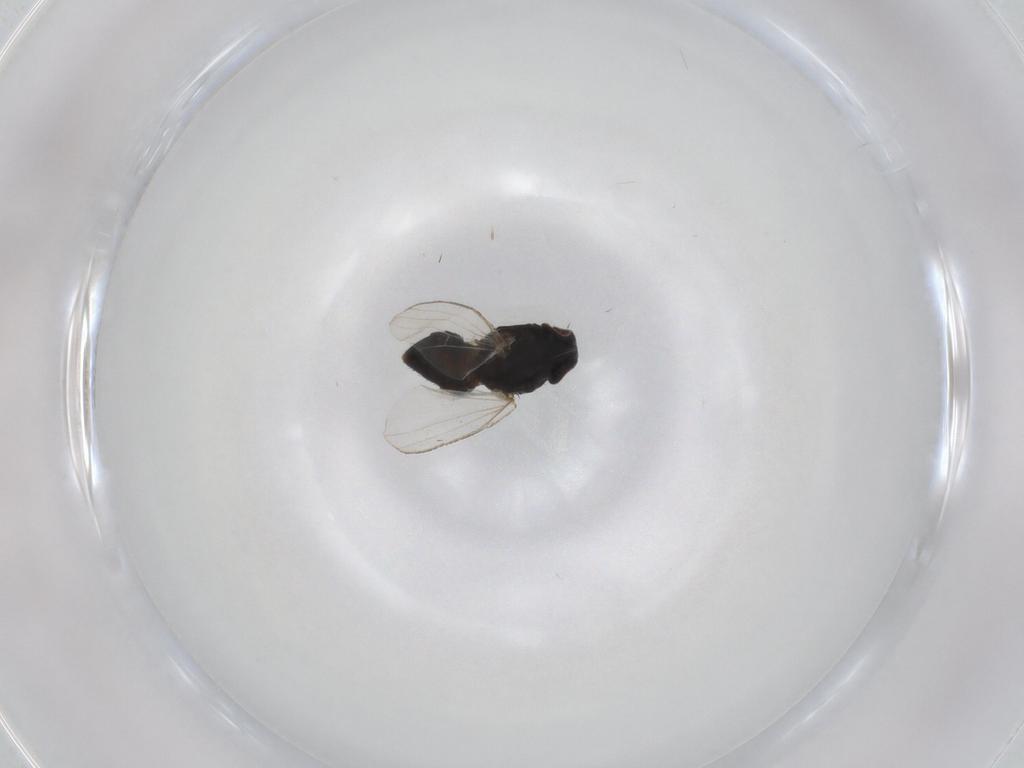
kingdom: Animalia
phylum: Arthropoda
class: Insecta
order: Diptera
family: Milichiidae
